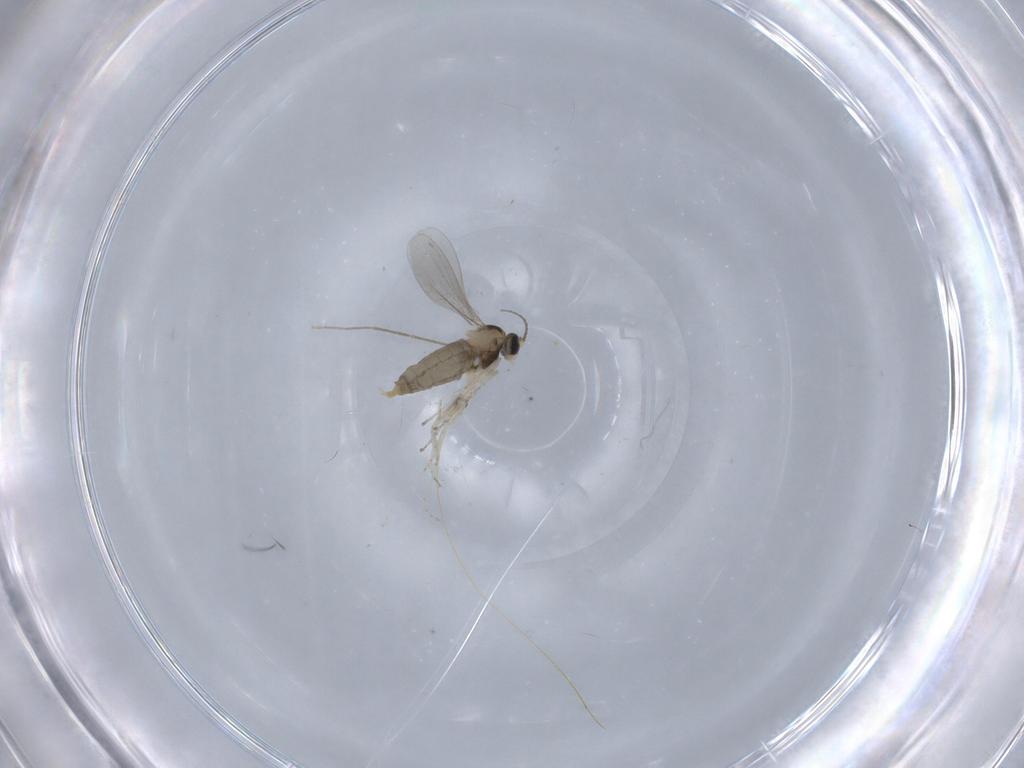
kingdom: Animalia
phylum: Arthropoda
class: Insecta
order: Diptera
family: Cecidomyiidae
